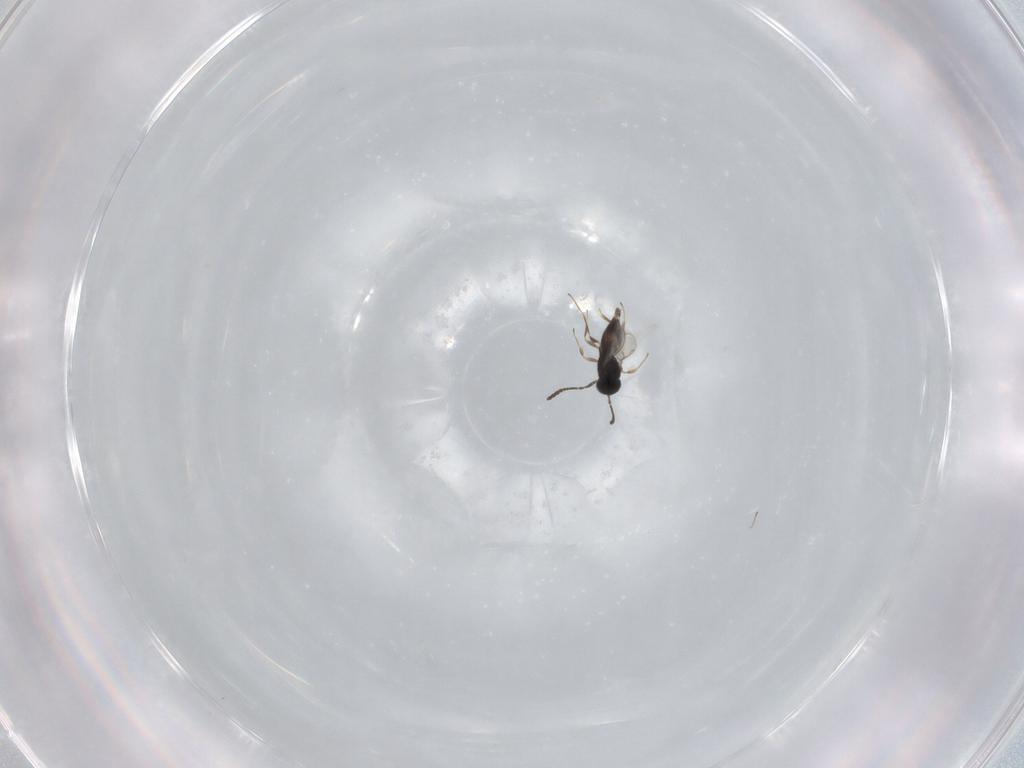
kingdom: Animalia
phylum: Arthropoda
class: Insecta
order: Hymenoptera
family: Scelionidae
